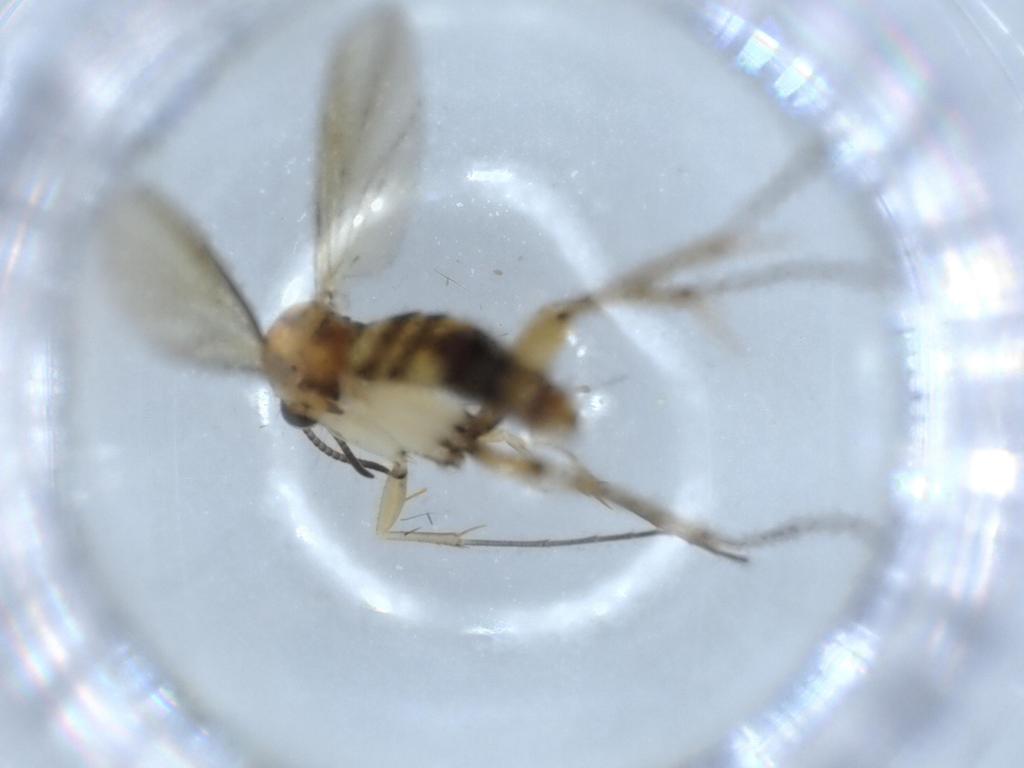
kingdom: Animalia
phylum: Arthropoda
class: Insecta
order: Diptera
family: Mycetophilidae
